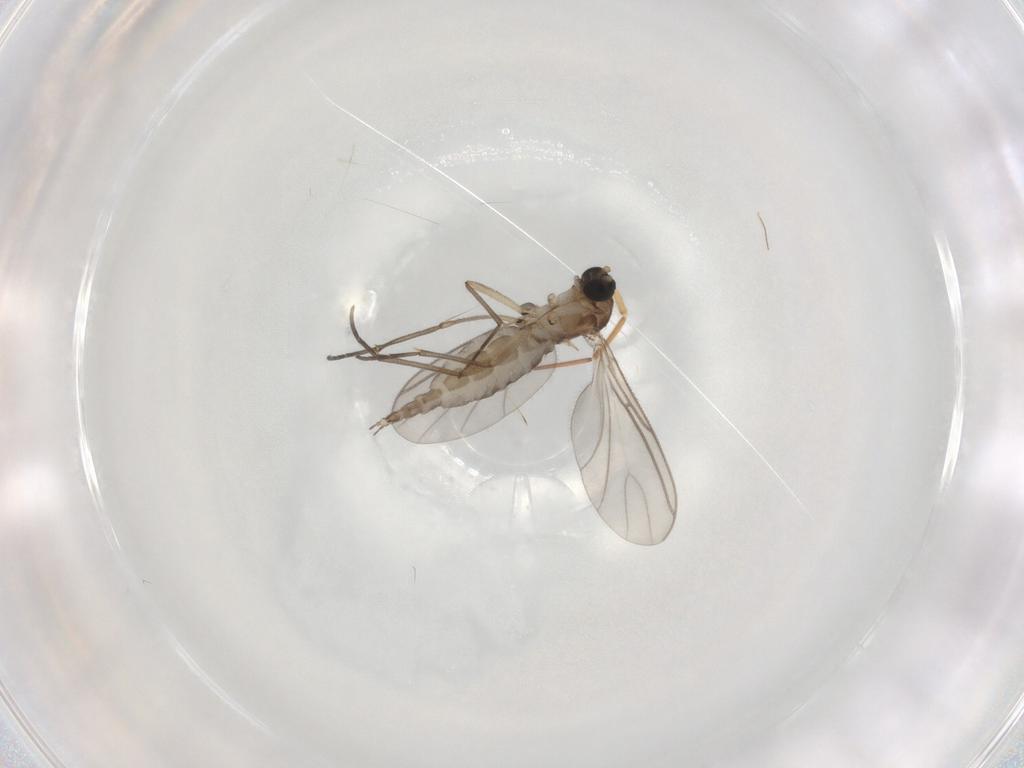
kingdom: Animalia
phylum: Arthropoda
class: Insecta
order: Diptera
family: Sciaridae
